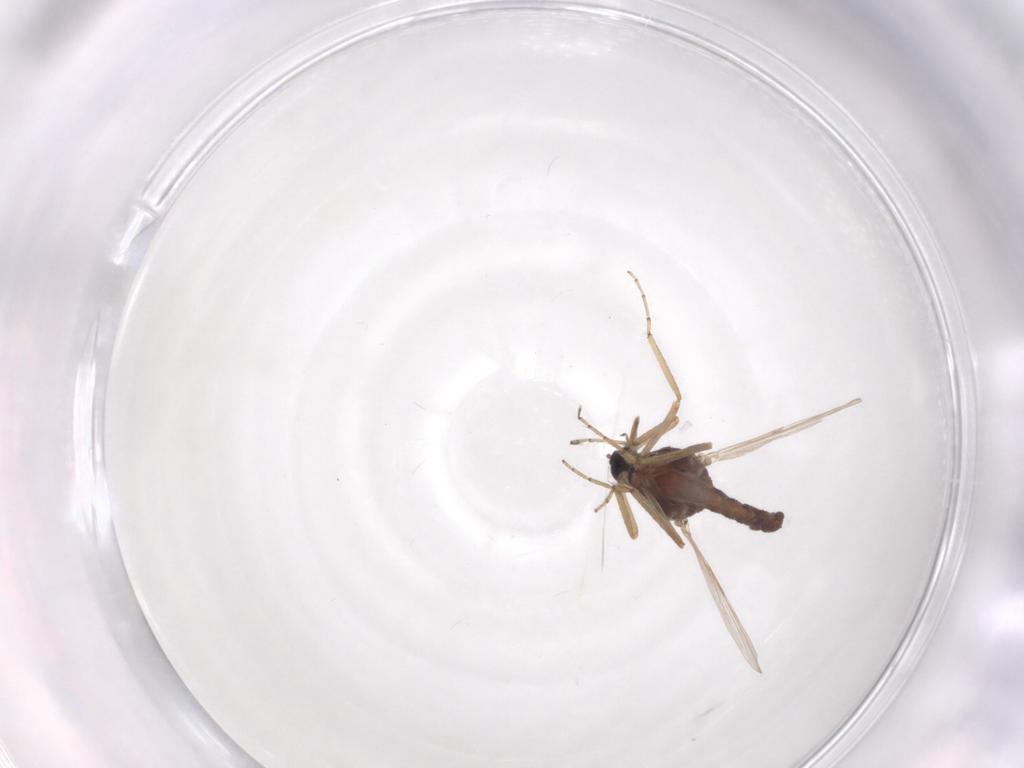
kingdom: Animalia
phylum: Arthropoda
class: Insecta
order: Diptera
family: Ceratopogonidae
